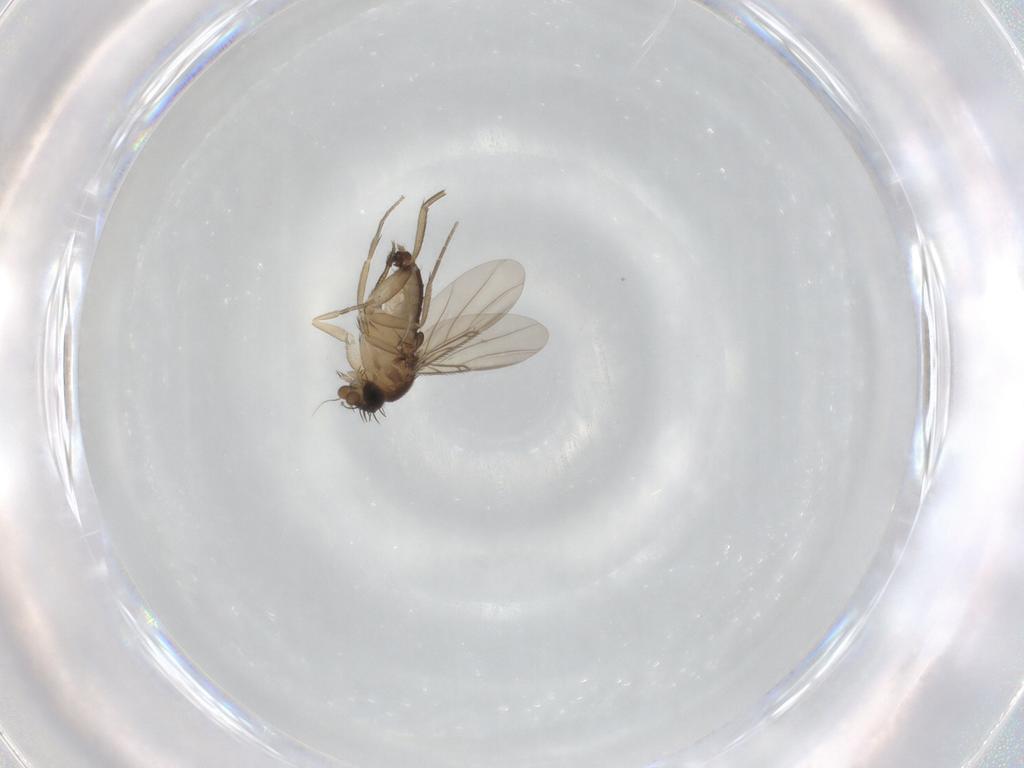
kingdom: Animalia
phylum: Arthropoda
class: Insecta
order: Diptera
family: Phoridae
